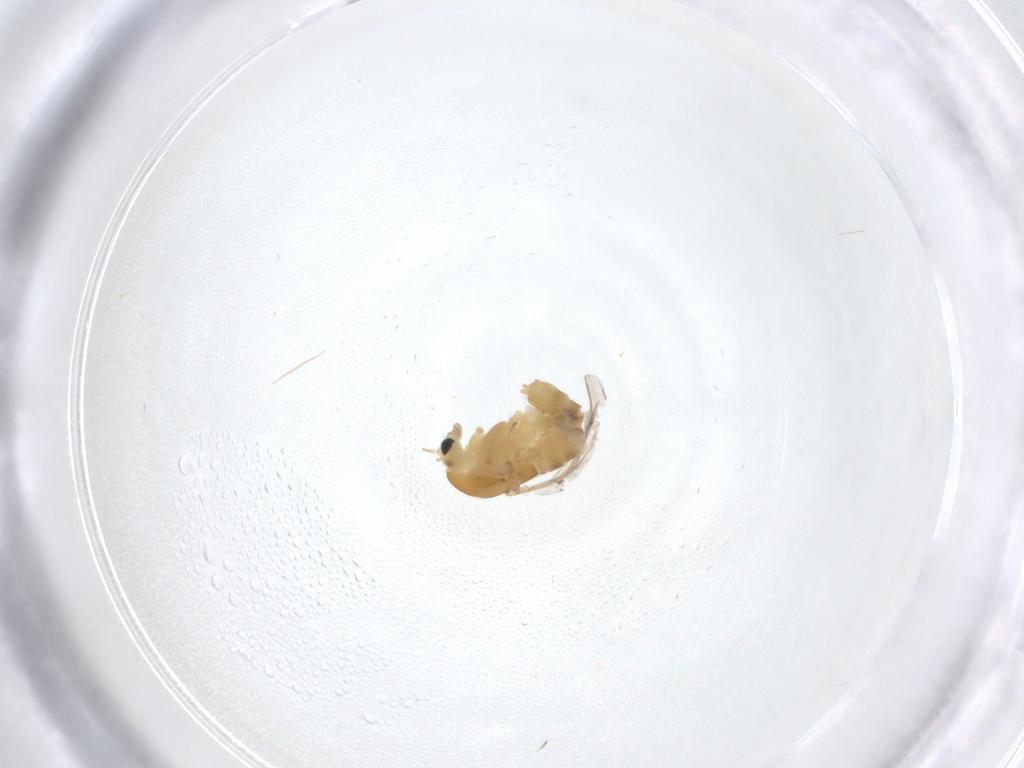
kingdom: Animalia
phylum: Arthropoda
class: Insecta
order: Diptera
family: Chironomidae
